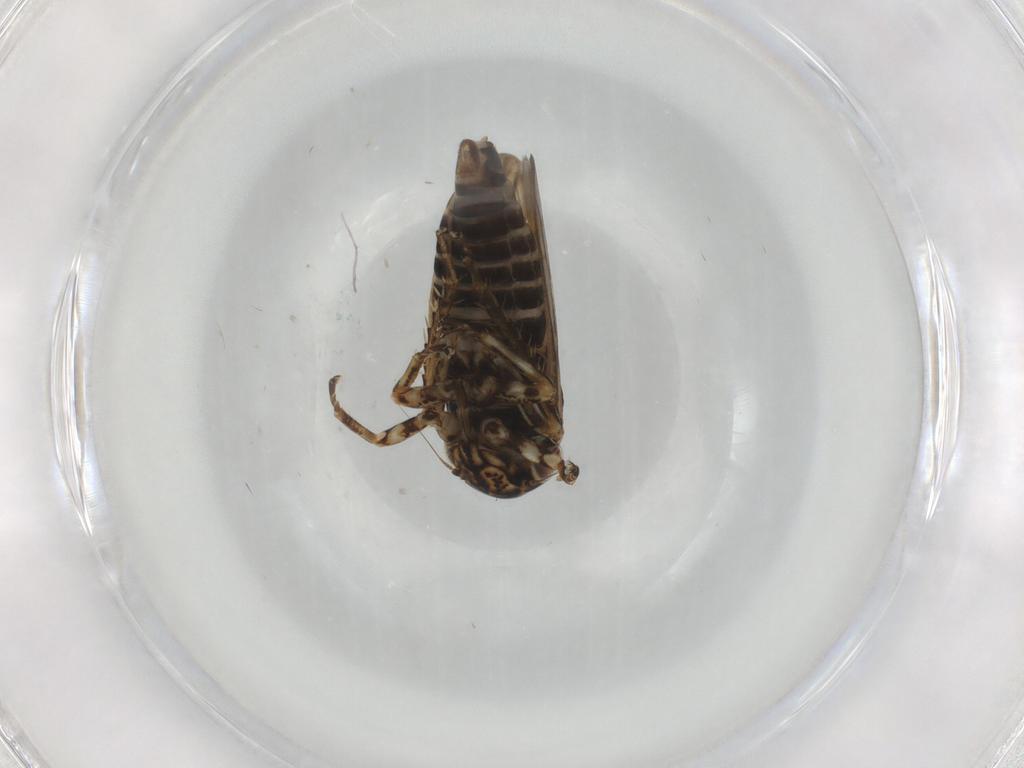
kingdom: Animalia
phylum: Arthropoda
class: Insecta
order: Hemiptera
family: Cicadellidae
